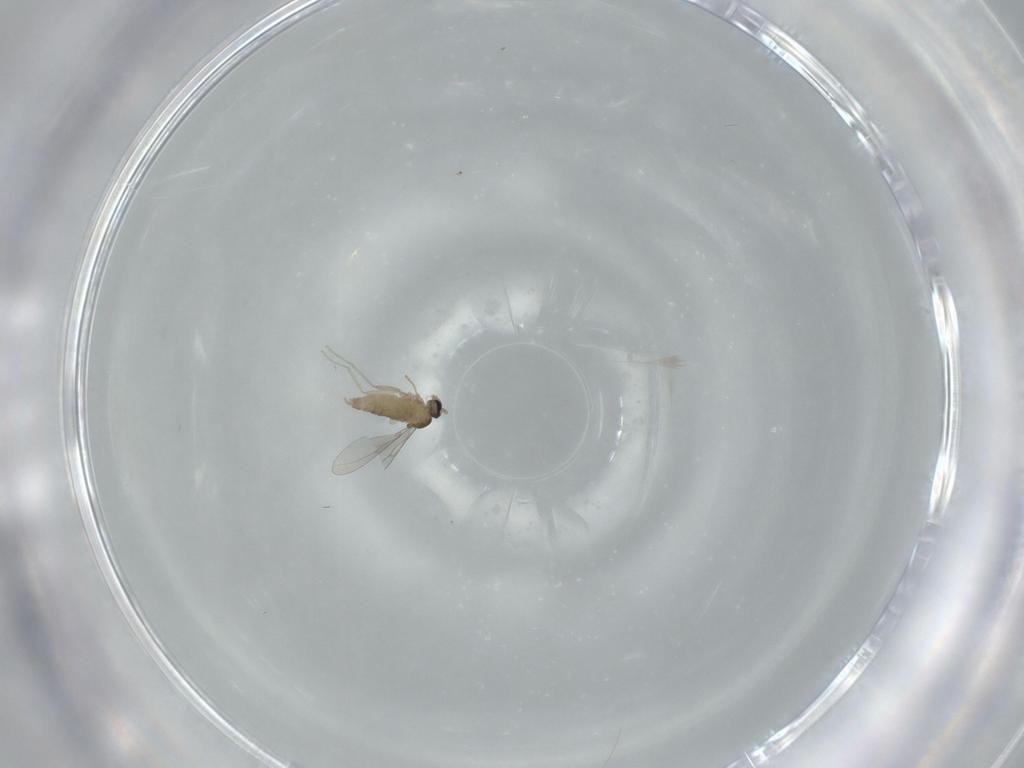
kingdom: Animalia
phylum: Arthropoda
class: Insecta
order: Diptera
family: Cecidomyiidae
